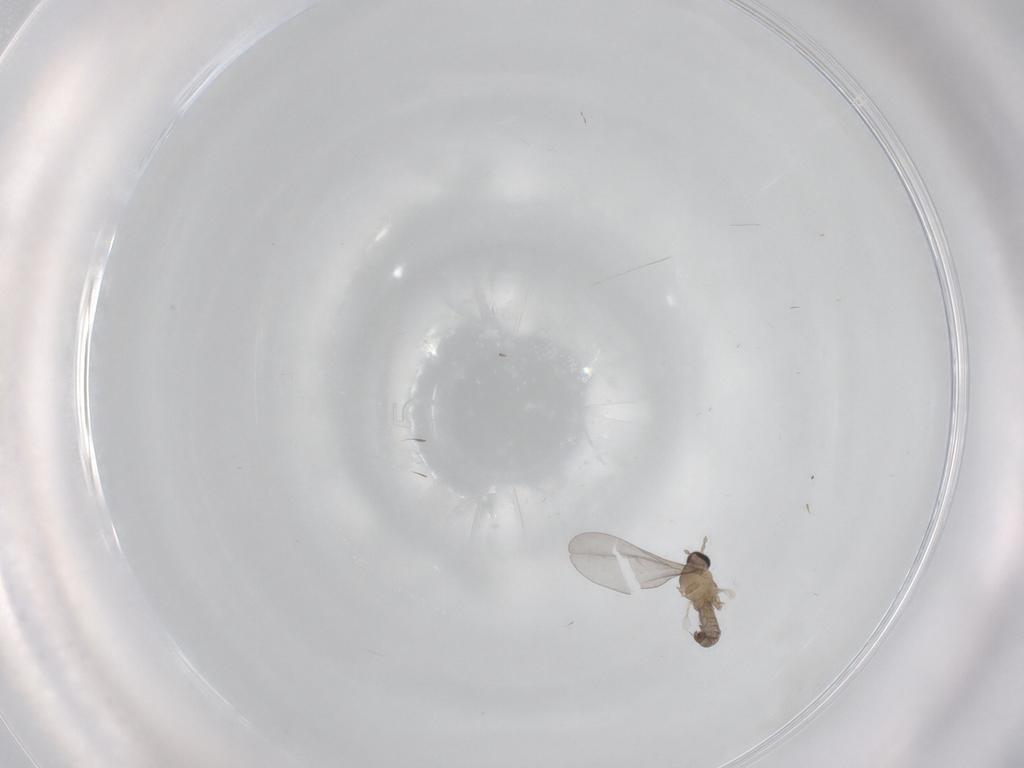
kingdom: Animalia
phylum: Arthropoda
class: Insecta
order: Diptera
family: Cecidomyiidae
